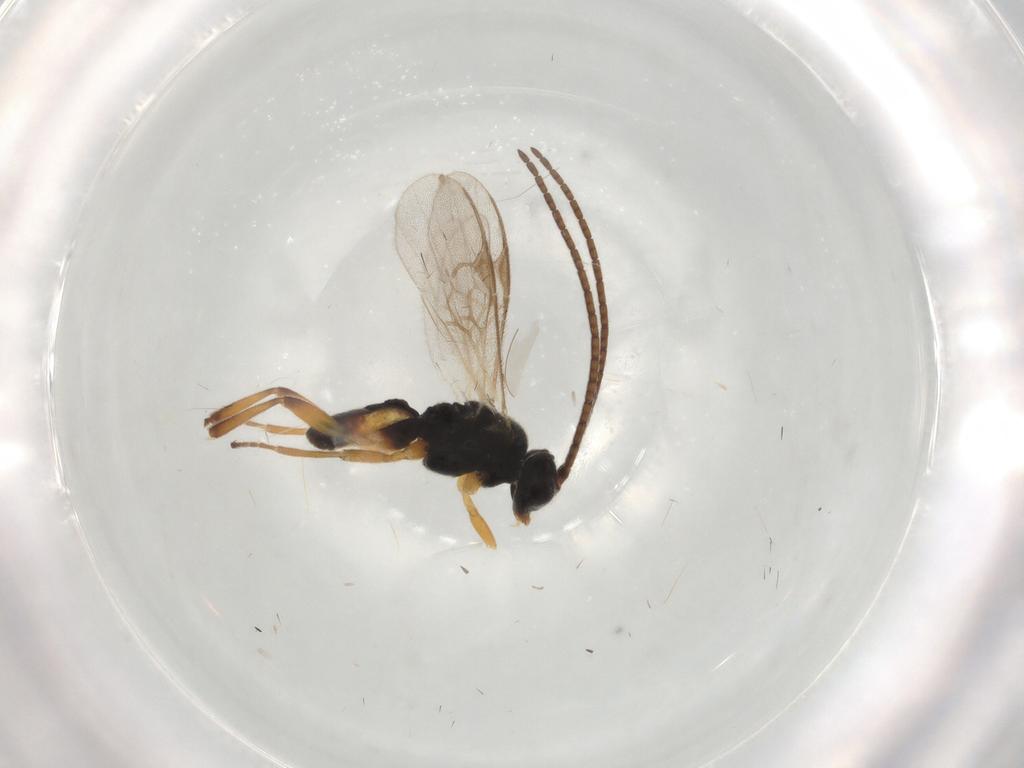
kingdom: Animalia
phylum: Arthropoda
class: Insecta
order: Hymenoptera
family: Braconidae
